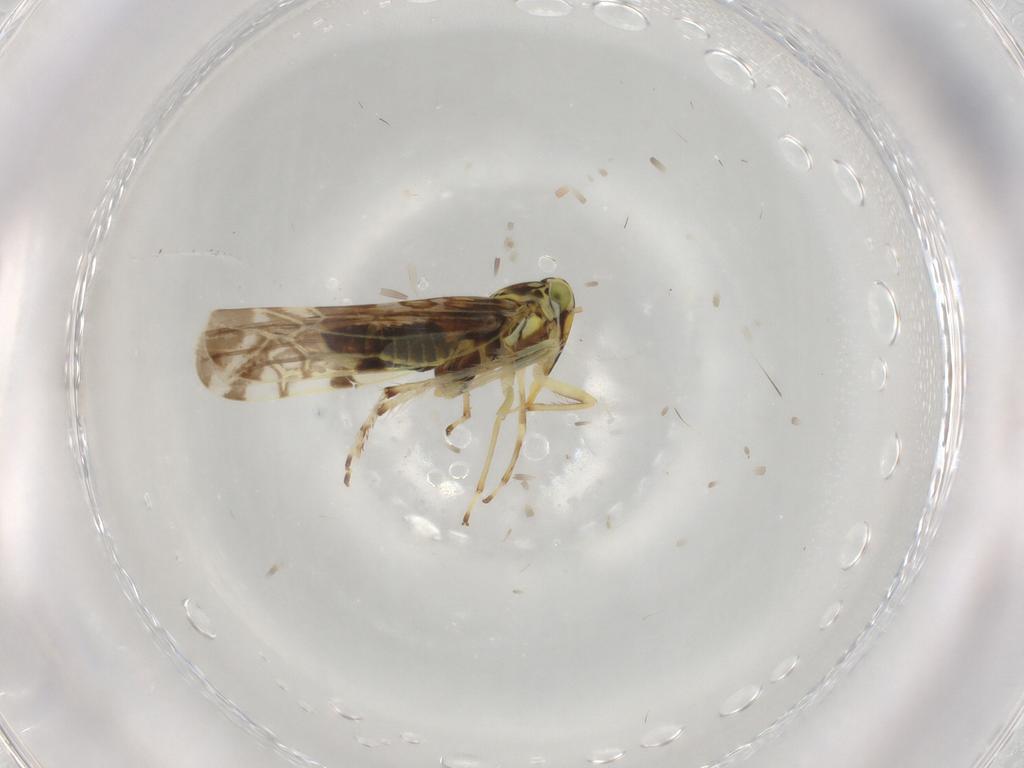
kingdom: Animalia
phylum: Arthropoda
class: Insecta
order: Hemiptera
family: Cicadellidae
